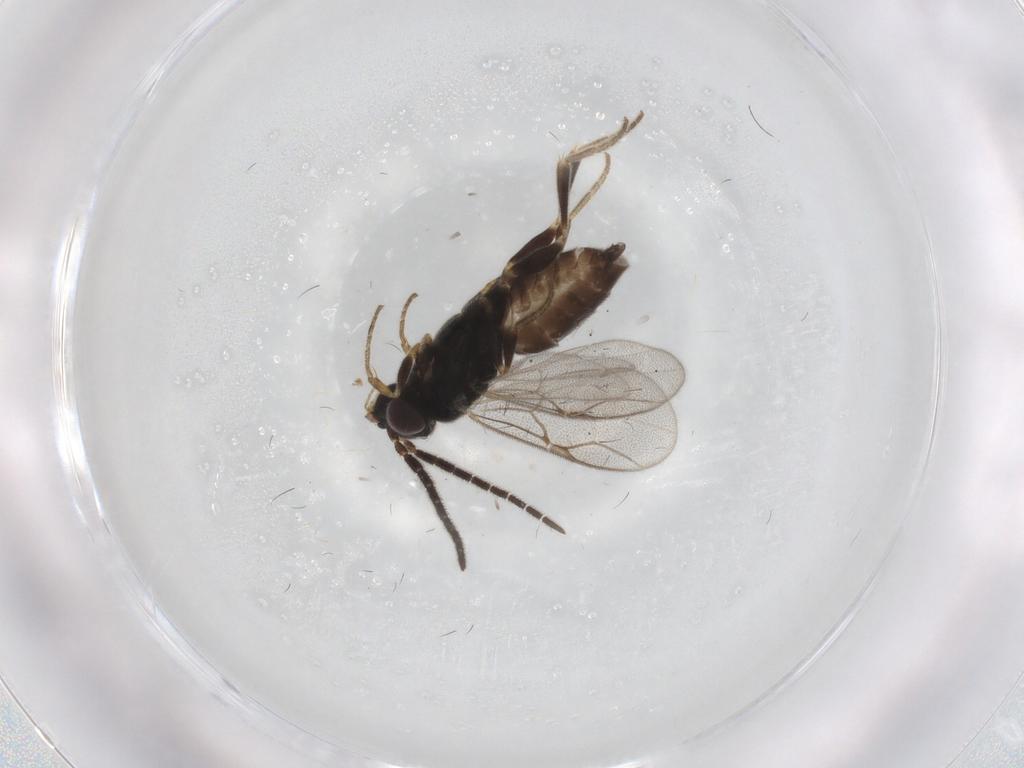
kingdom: Animalia
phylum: Arthropoda
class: Insecta
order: Hymenoptera
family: Dryinidae
